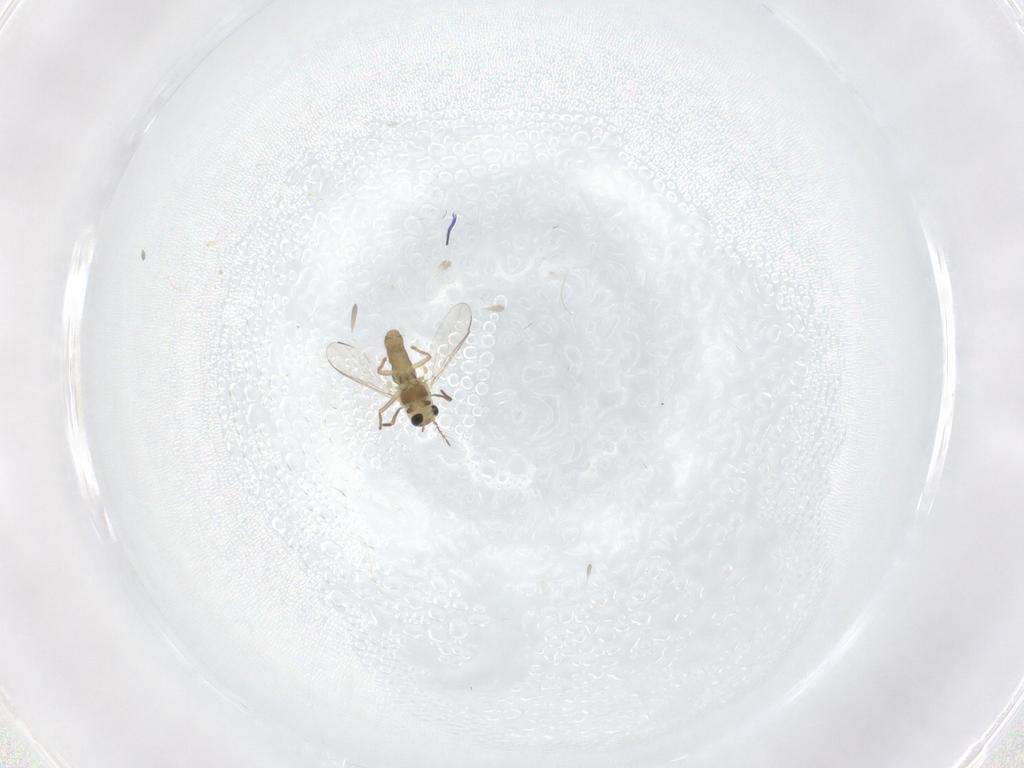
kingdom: Animalia
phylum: Arthropoda
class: Insecta
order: Diptera
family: Chironomidae
